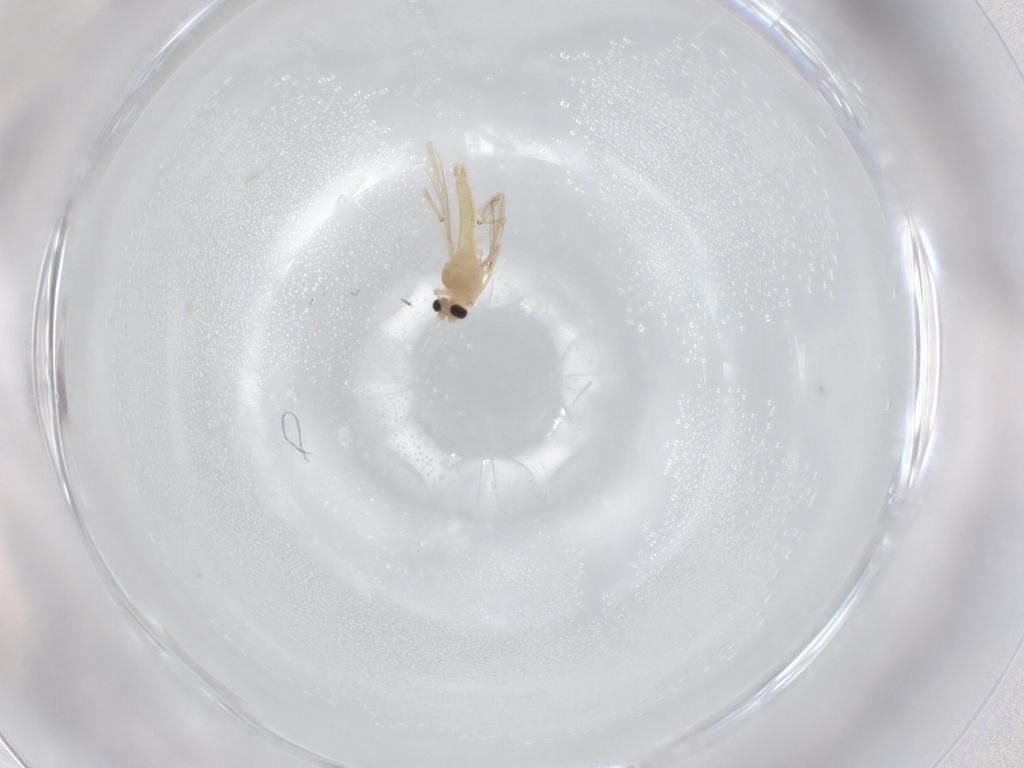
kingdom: Animalia
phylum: Arthropoda
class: Insecta
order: Diptera
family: Chironomidae
